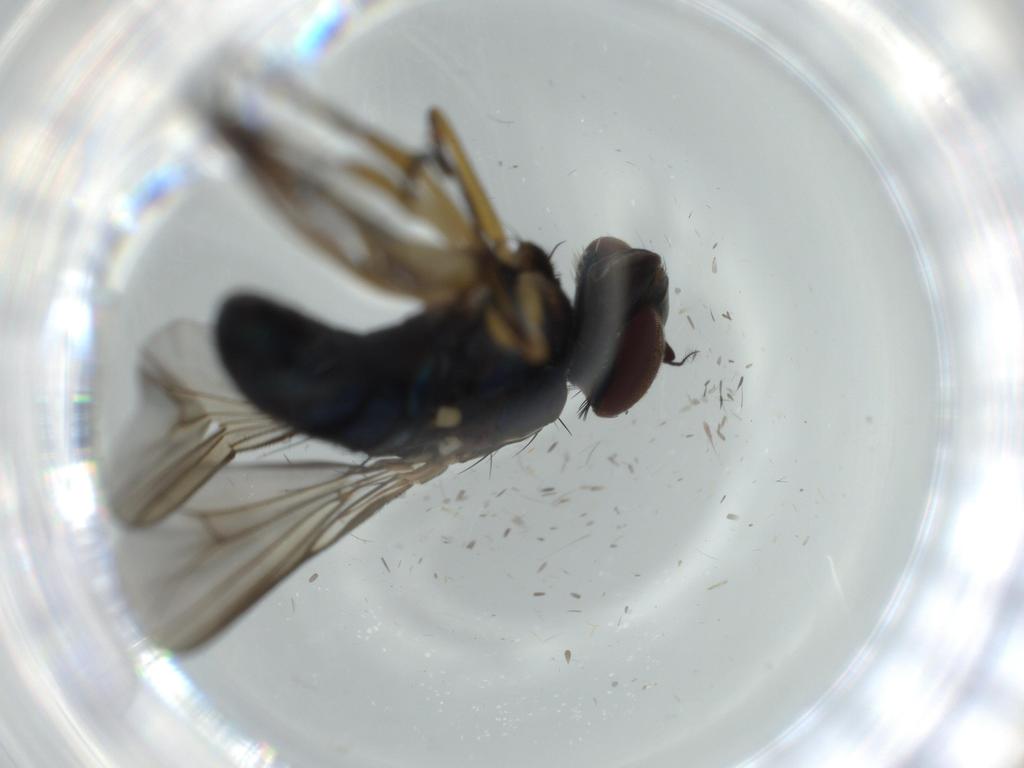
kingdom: Animalia
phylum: Arthropoda
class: Insecta
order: Diptera
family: Dolichopodidae
